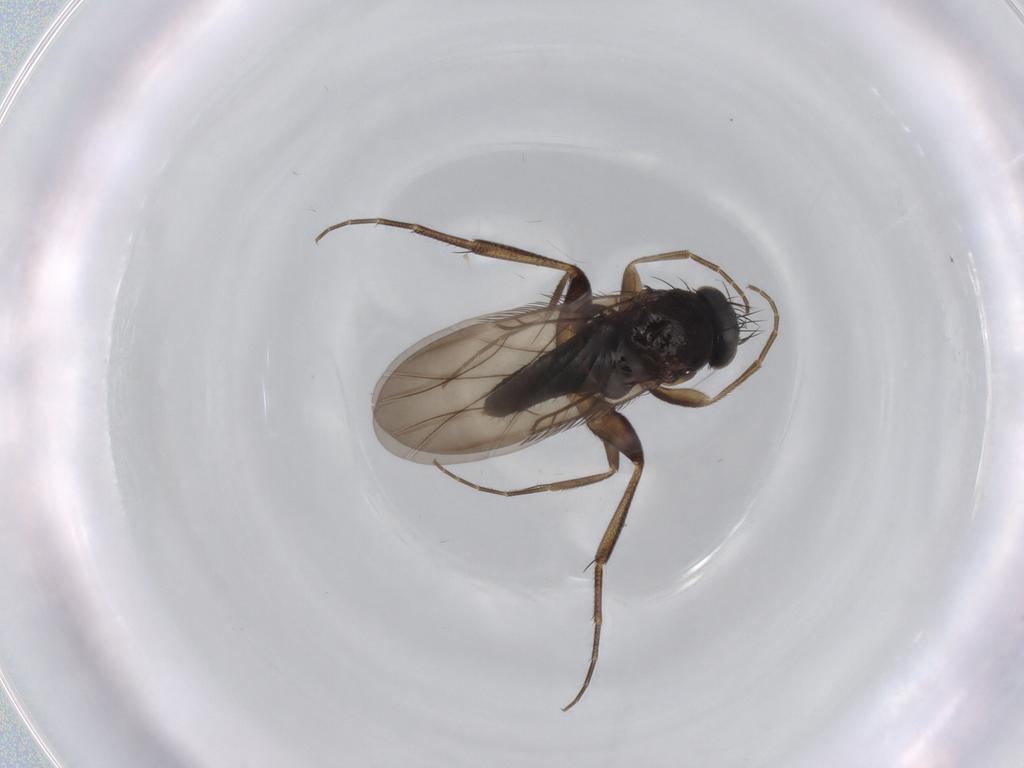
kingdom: Animalia
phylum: Arthropoda
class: Insecta
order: Diptera
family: Phoridae
